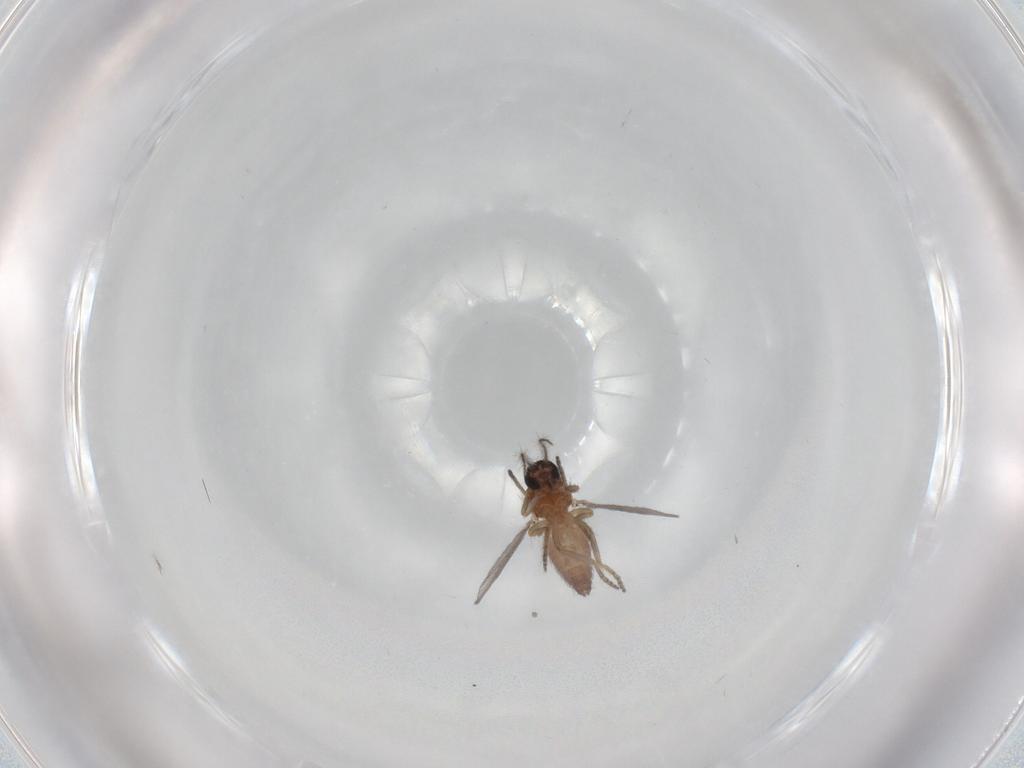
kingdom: Animalia
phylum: Arthropoda
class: Insecta
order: Diptera
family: Ceratopogonidae
